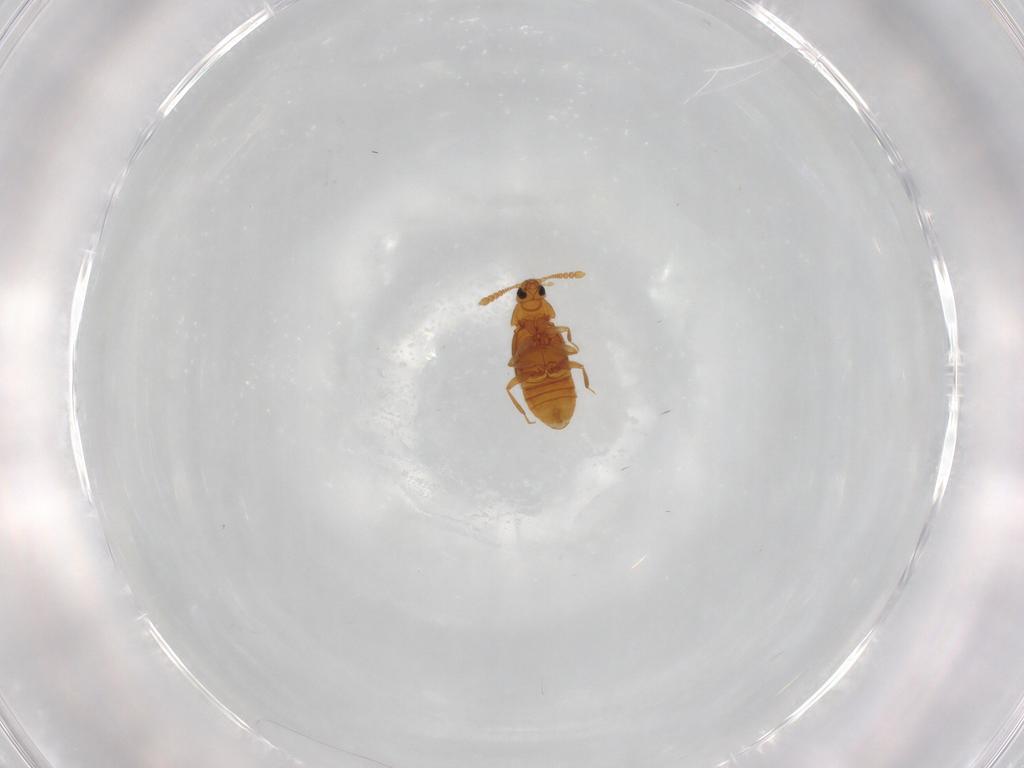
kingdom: Animalia
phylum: Arthropoda
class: Insecta
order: Coleoptera
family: Staphylinidae
